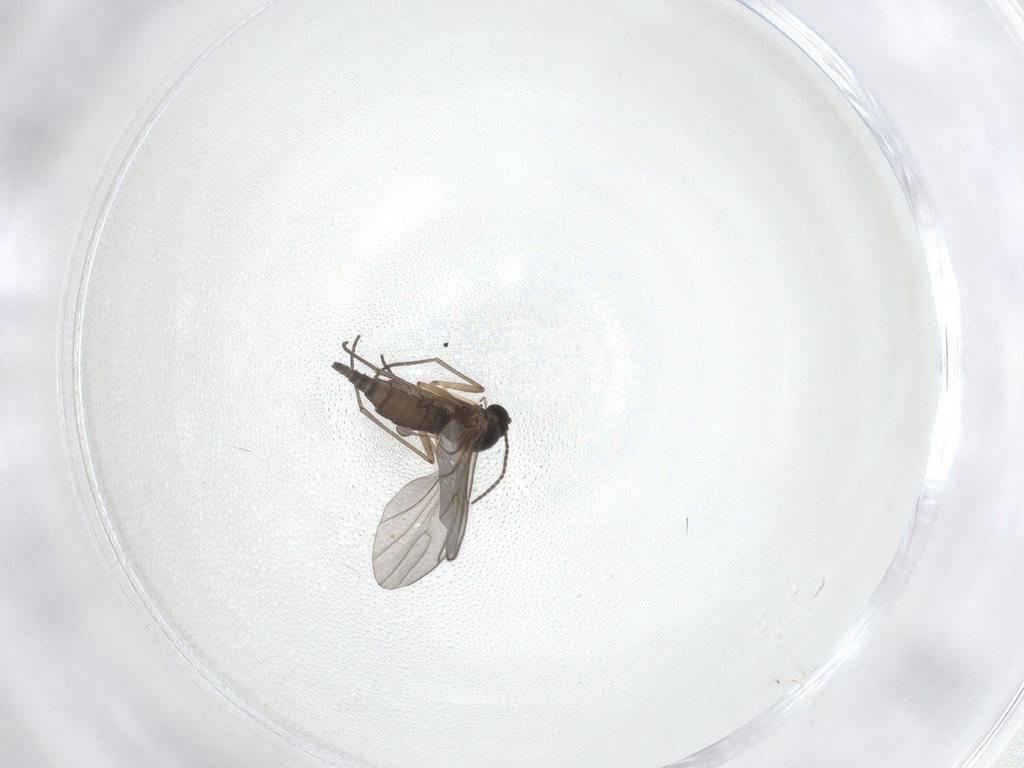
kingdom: Animalia
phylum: Arthropoda
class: Insecta
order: Diptera
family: Sciaridae
